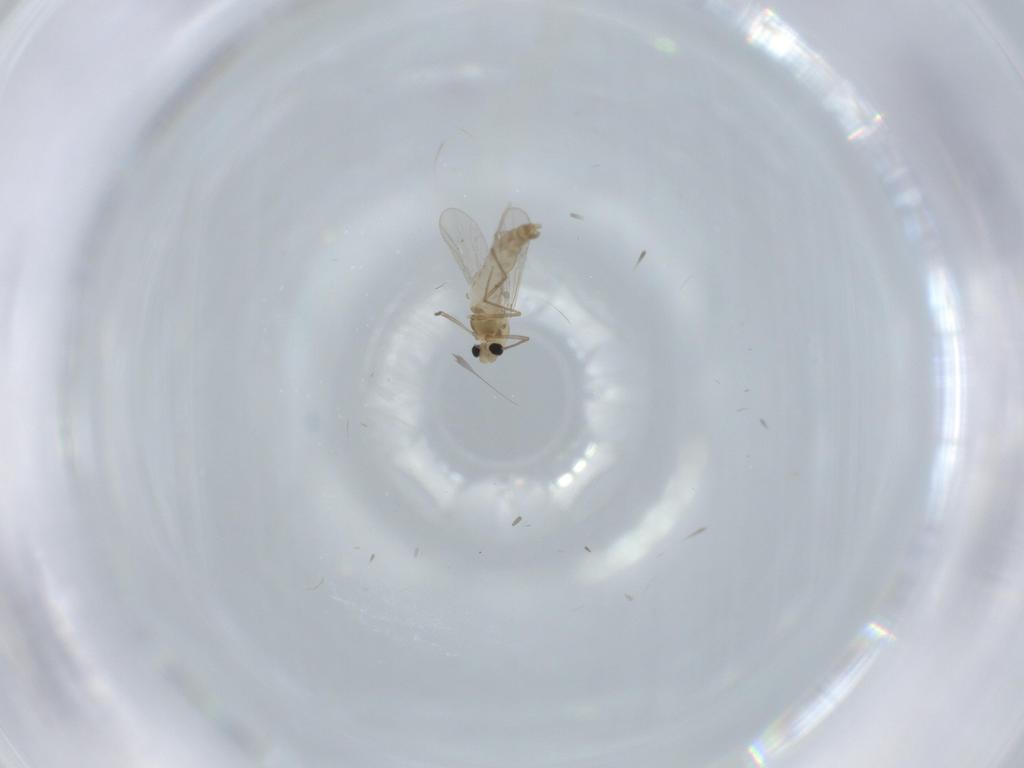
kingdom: Animalia
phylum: Arthropoda
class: Insecta
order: Diptera
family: Chironomidae
